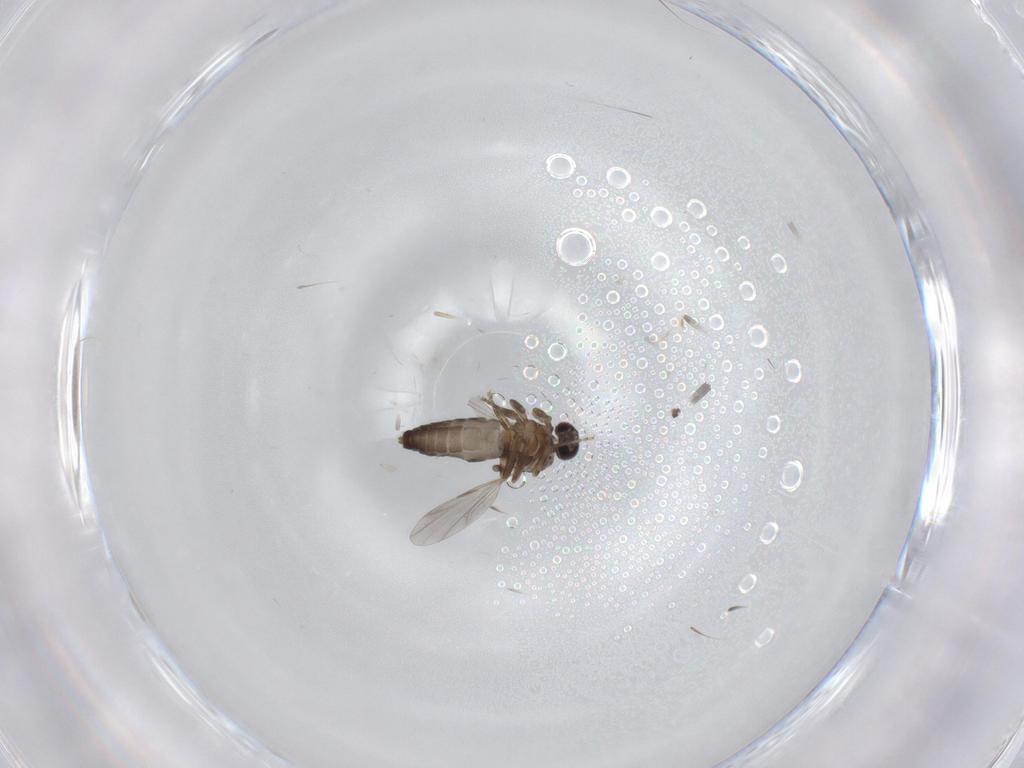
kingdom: Animalia
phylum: Arthropoda
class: Insecta
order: Diptera
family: Ceratopogonidae
